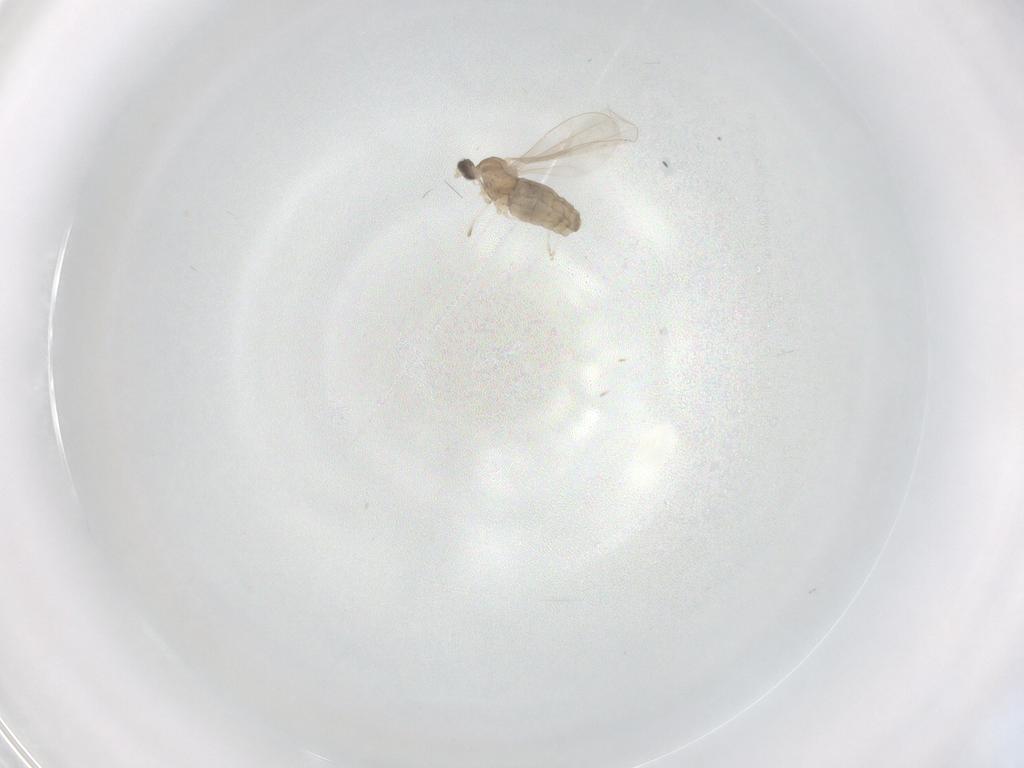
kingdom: Animalia
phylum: Arthropoda
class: Insecta
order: Diptera
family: Cecidomyiidae
